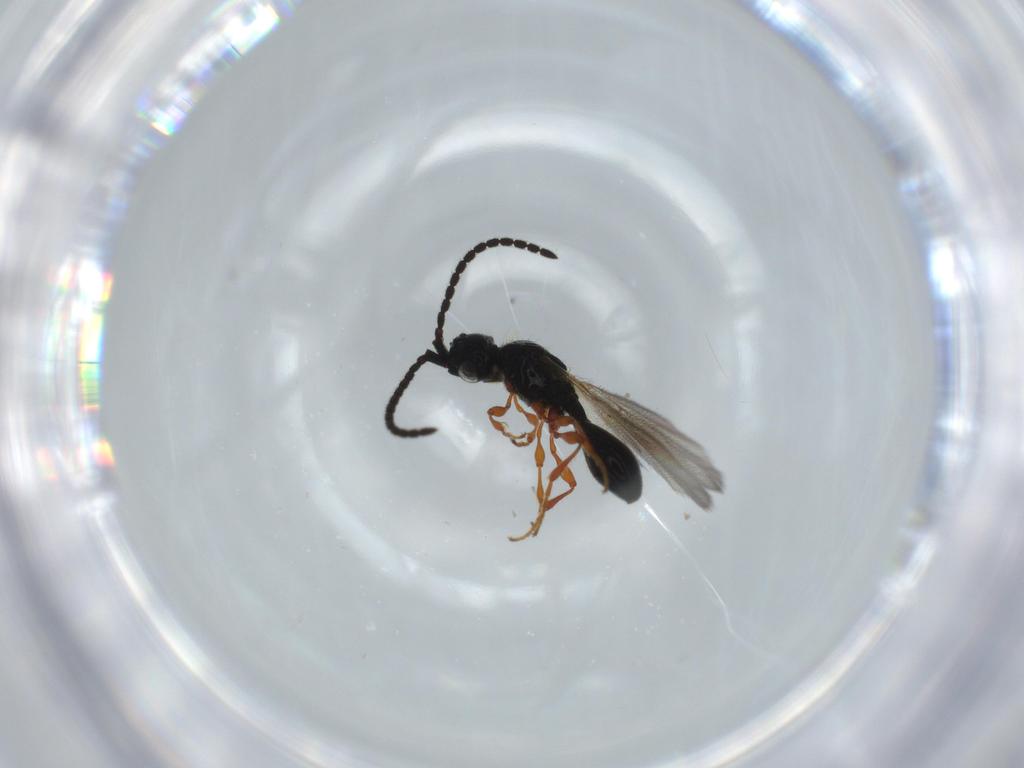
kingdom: Animalia
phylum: Arthropoda
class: Insecta
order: Hymenoptera
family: Diapriidae
